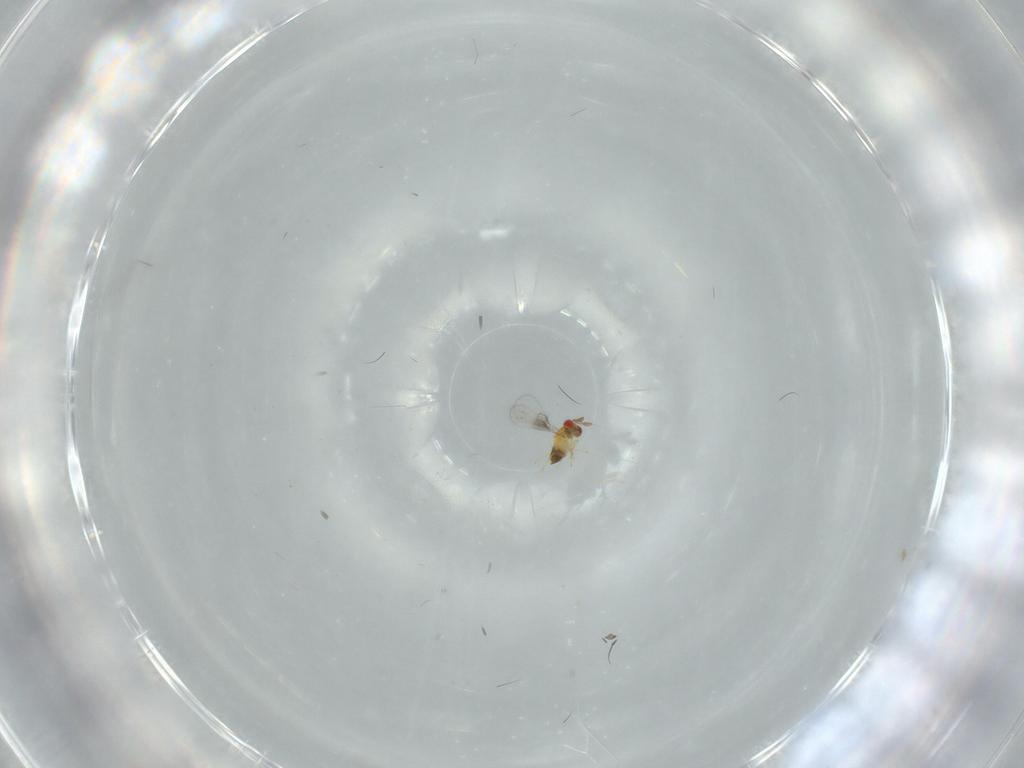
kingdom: Animalia
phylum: Arthropoda
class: Insecta
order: Hymenoptera
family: Trichogrammatidae
